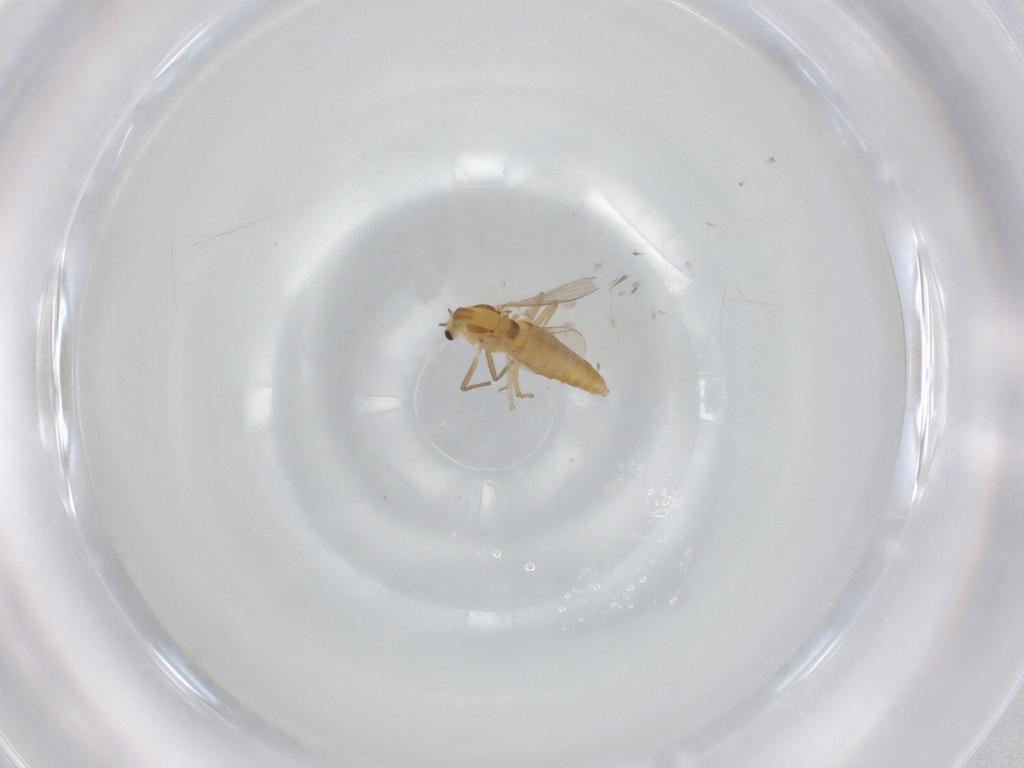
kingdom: Animalia
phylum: Arthropoda
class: Insecta
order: Diptera
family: Chironomidae
